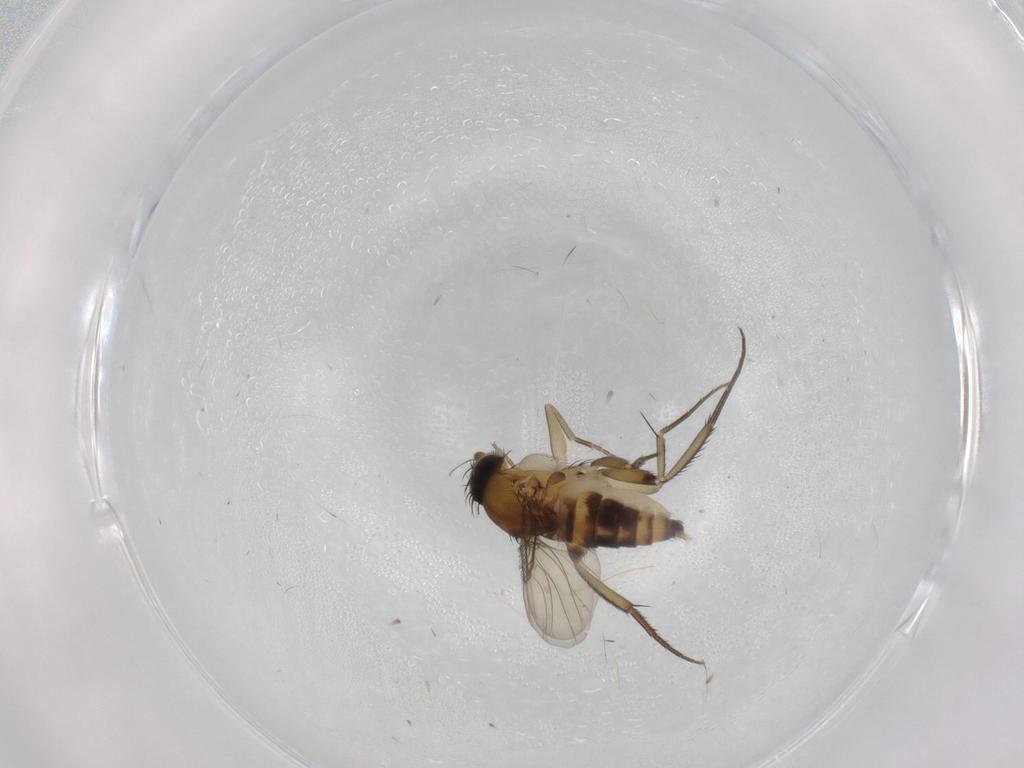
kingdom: Animalia
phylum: Arthropoda
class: Insecta
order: Diptera
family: Phoridae
